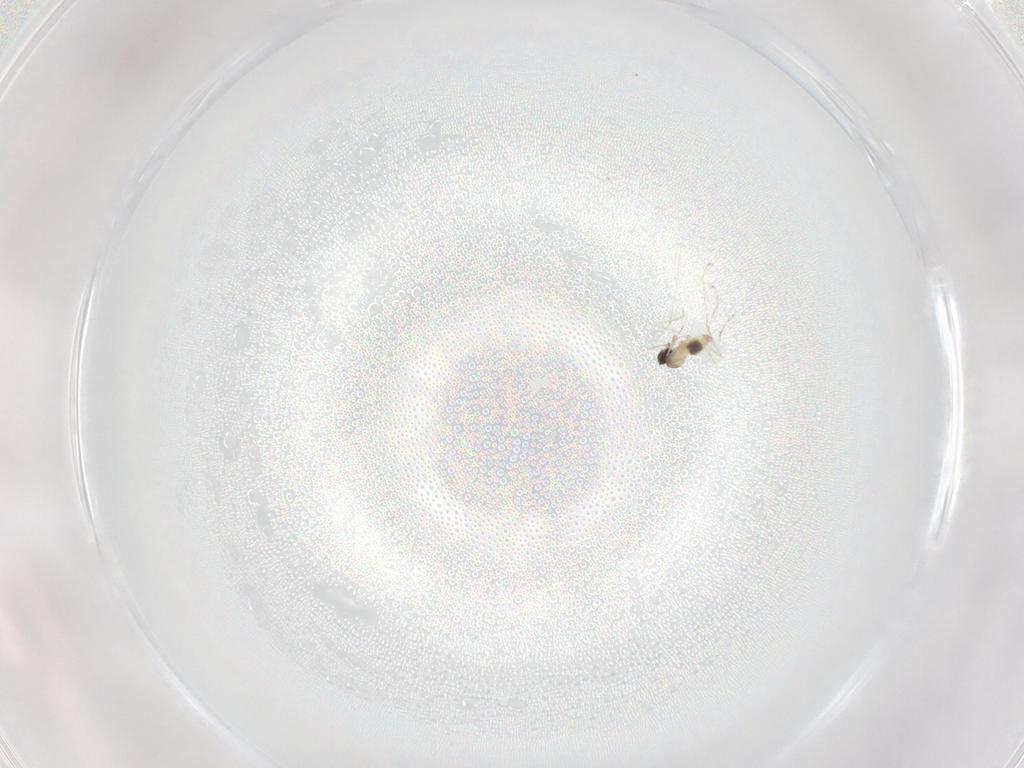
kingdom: Animalia
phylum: Arthropoda
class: Insecta
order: Diptera
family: Cecidomyiidae
